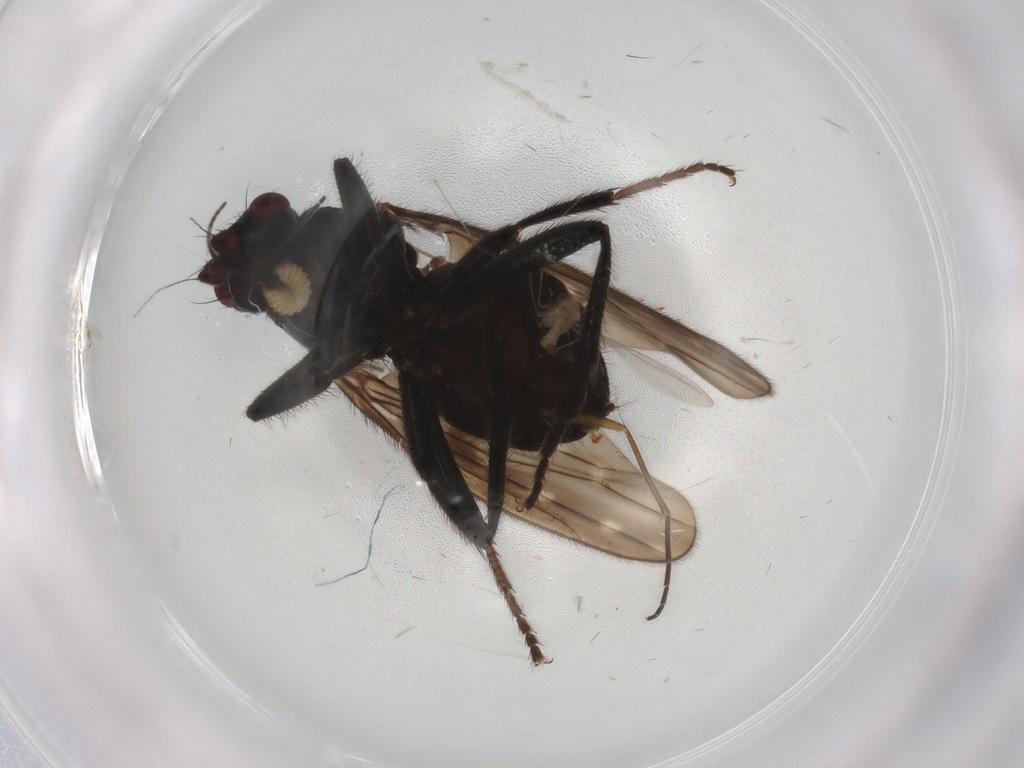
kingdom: Animalia
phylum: Arthropoda
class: Insecta
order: Diptera
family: Sphaeroceridae
